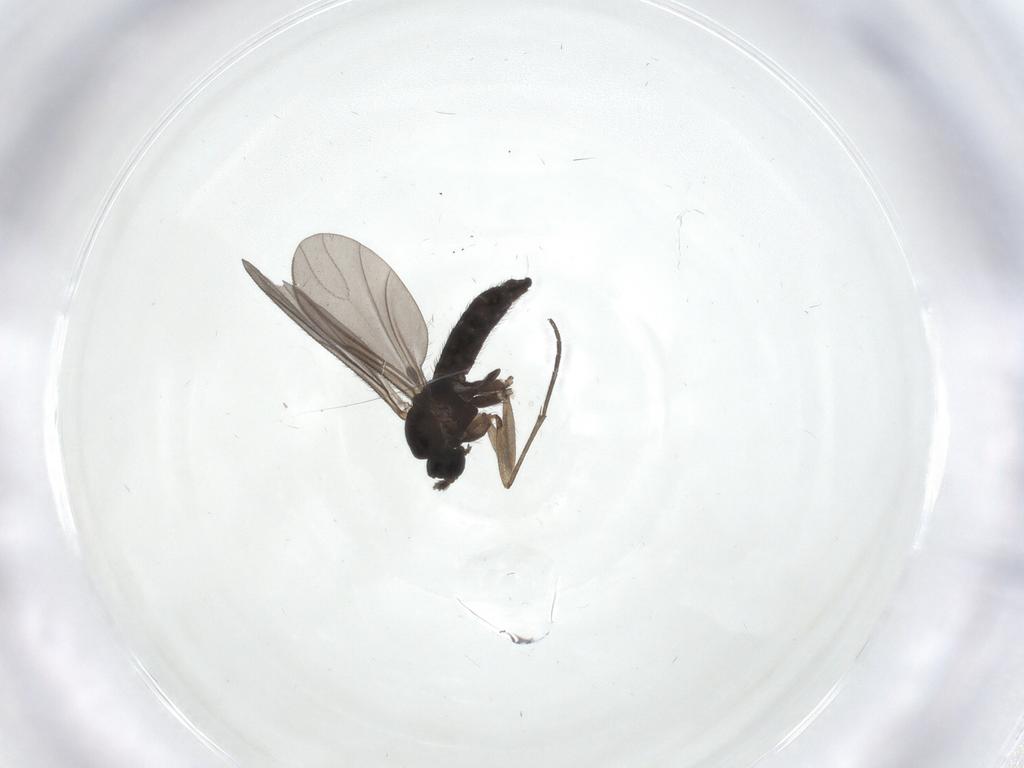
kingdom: Animalia
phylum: Arthropoda
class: Insecta
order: Diptera
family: Sciaridae
